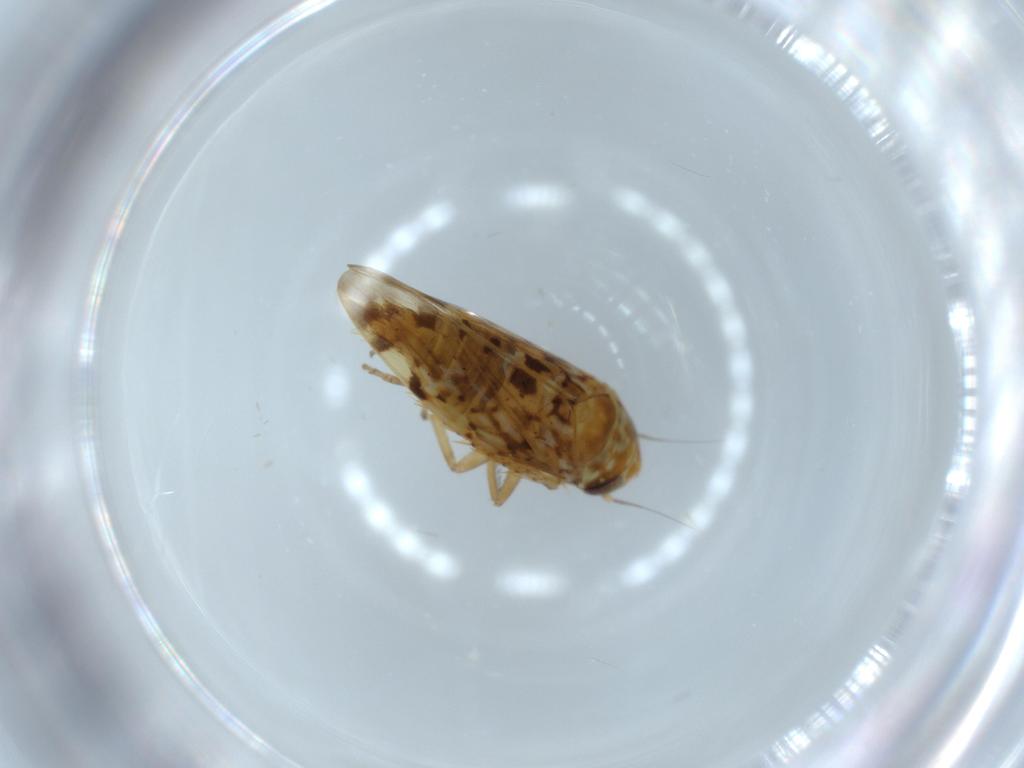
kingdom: Animalia
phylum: Arthropoda
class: Insecta
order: Hemiptera
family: Cicadellidae
